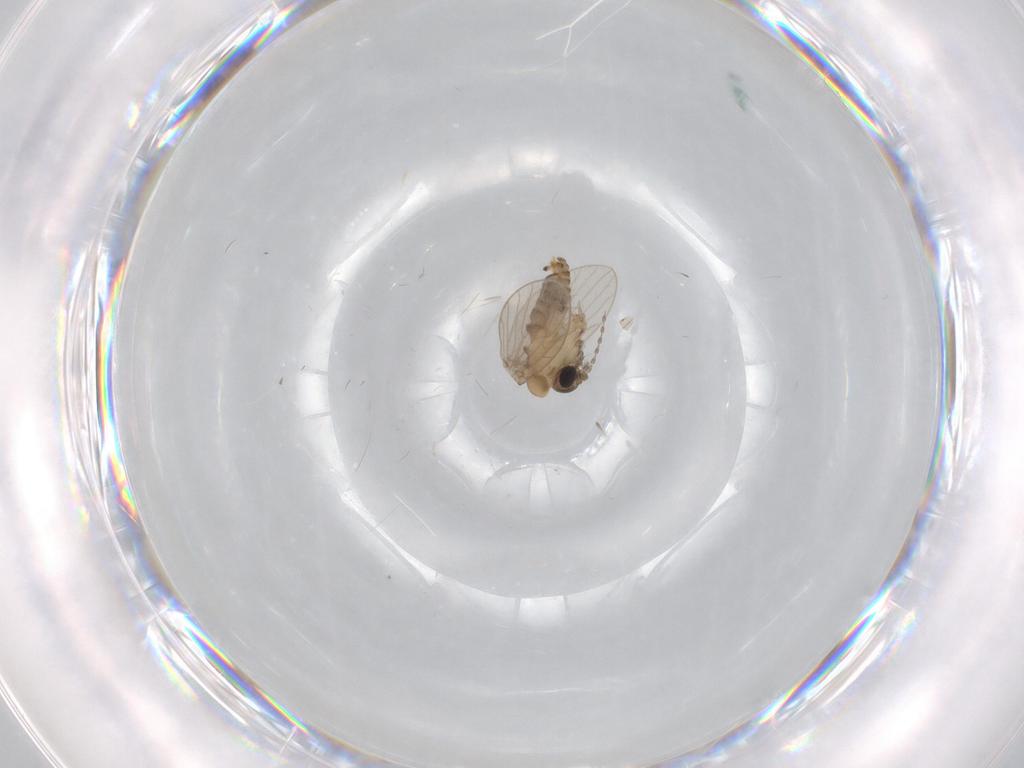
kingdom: Animalia
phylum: Arthropoda
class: Insecta
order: Diptera
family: Psychodidae
